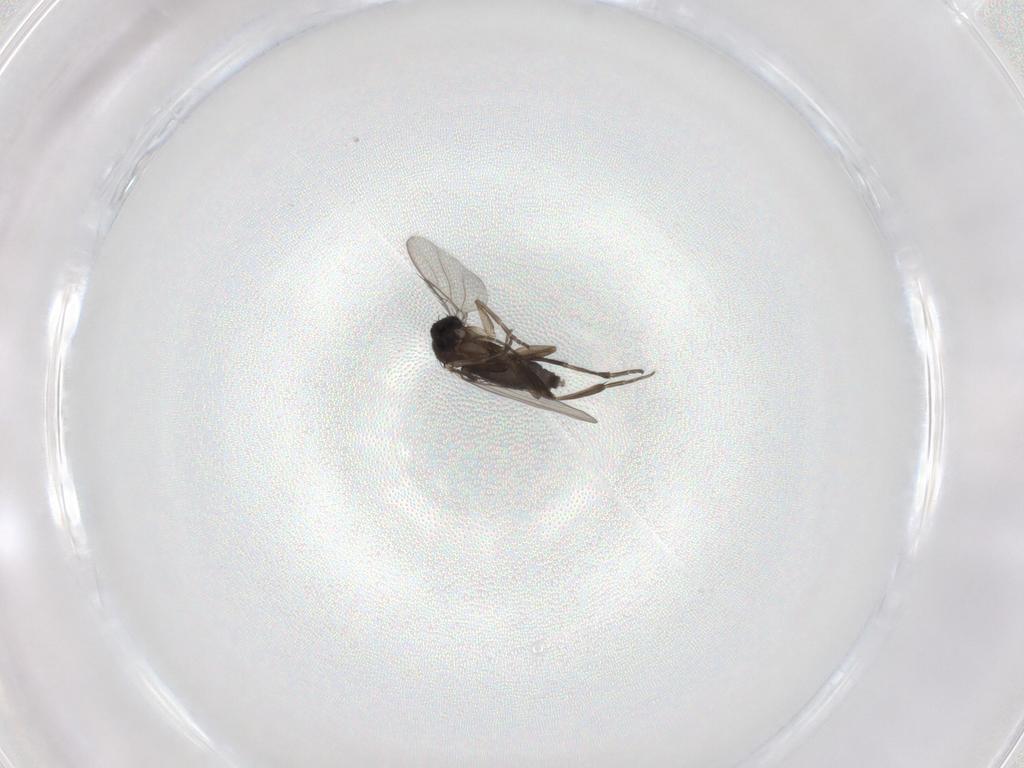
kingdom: Animalia
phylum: Arthropoda
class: Insecta
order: Diptera
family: Phoridae
